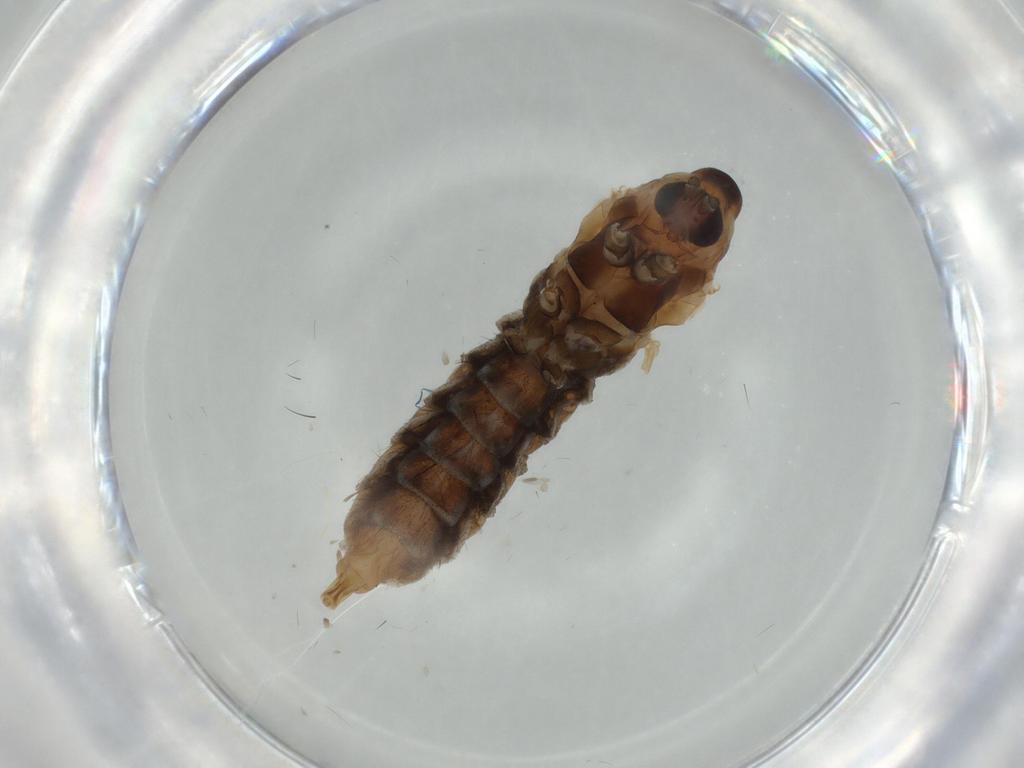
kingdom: Animalia
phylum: Arthropoda
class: Insecta
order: Diptera
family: Cecidomyiidae
